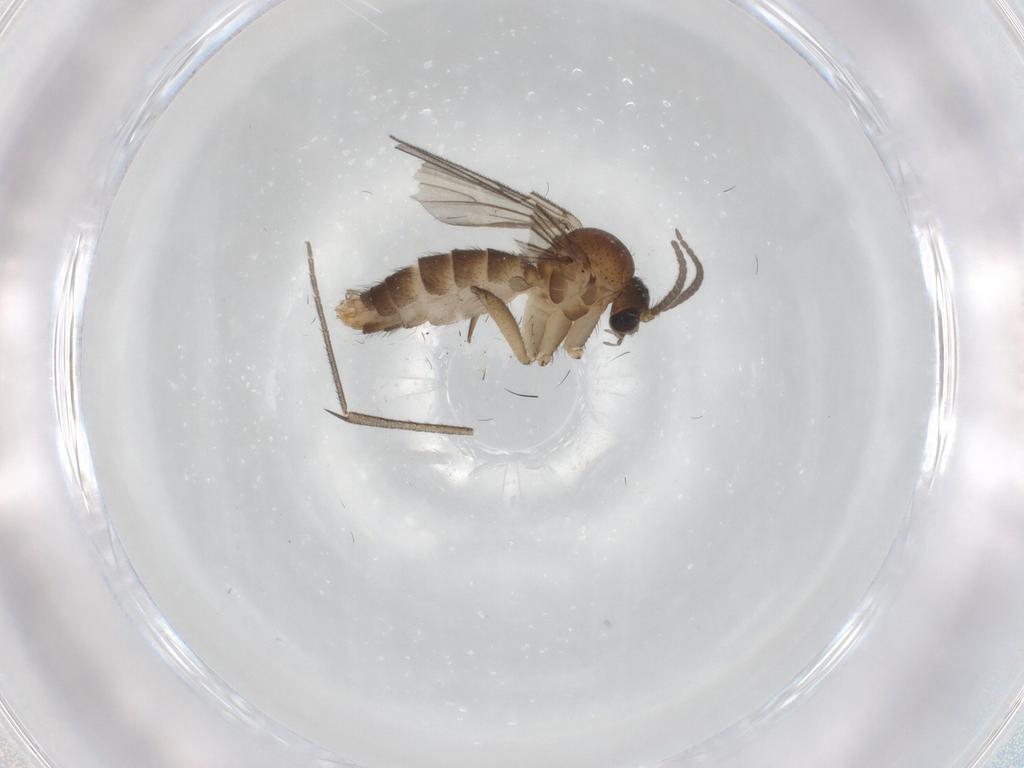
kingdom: Animalia
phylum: Arthropoda
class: Insecta
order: Diptera
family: Mycetophilidae
